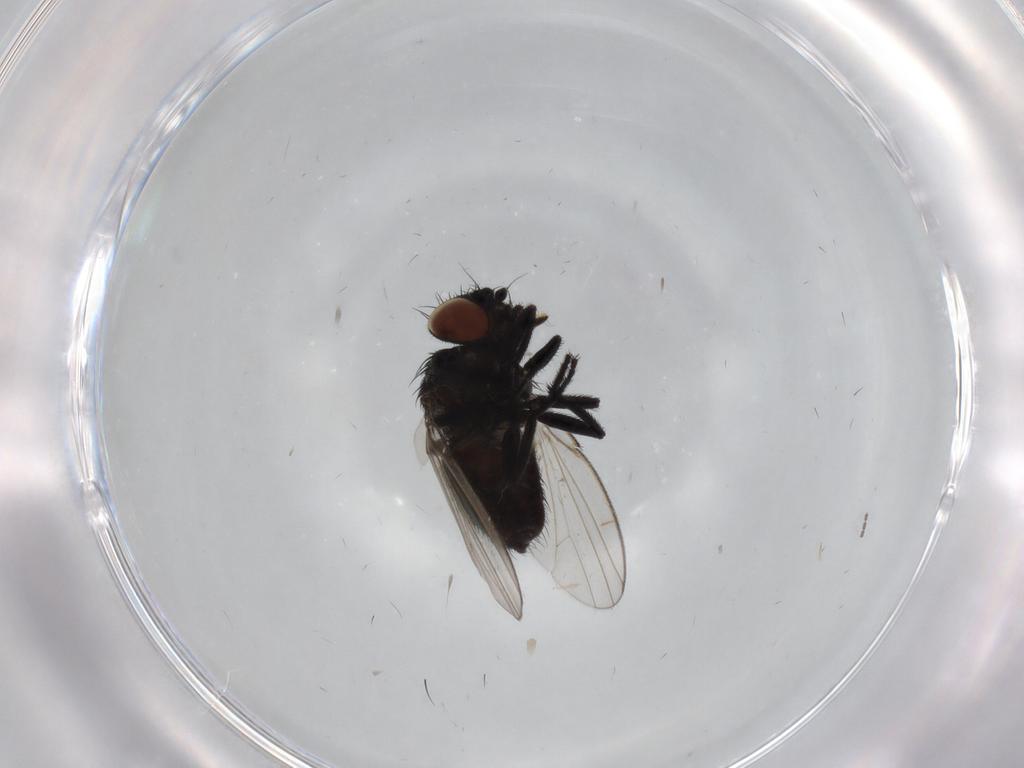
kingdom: Animalia
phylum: Arthropoda
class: Insecta
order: Diptera
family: Milichiidae
